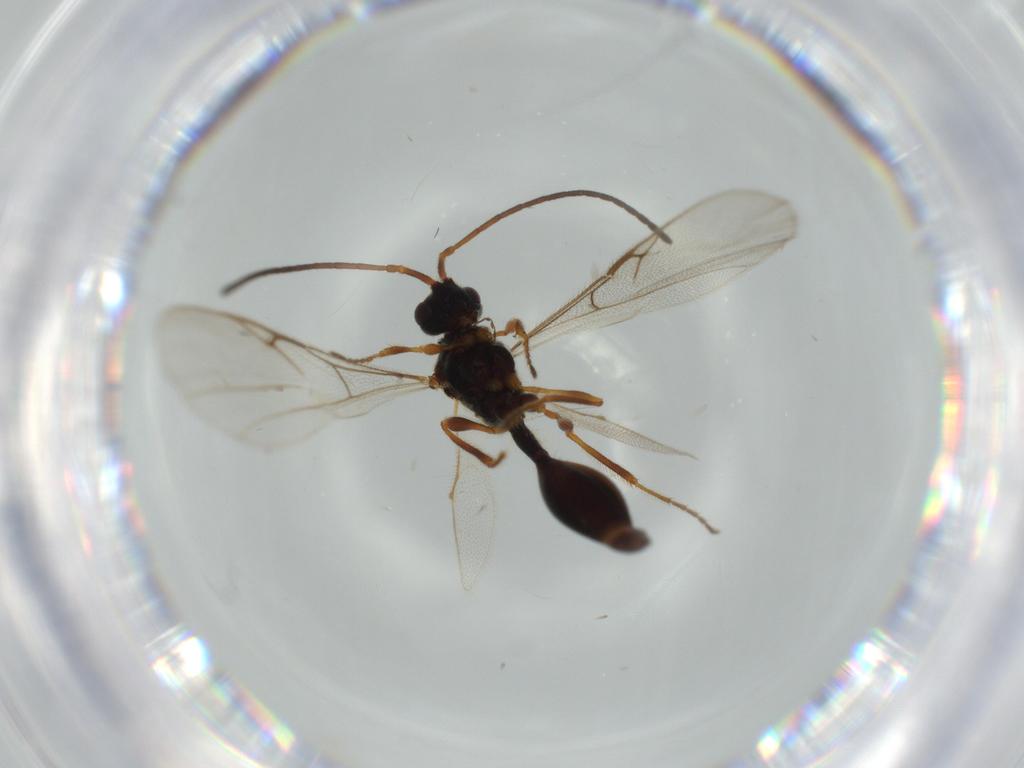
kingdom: Animalia
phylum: Arthropoda
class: Insecta
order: Hymenoptera
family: Diapriidae
